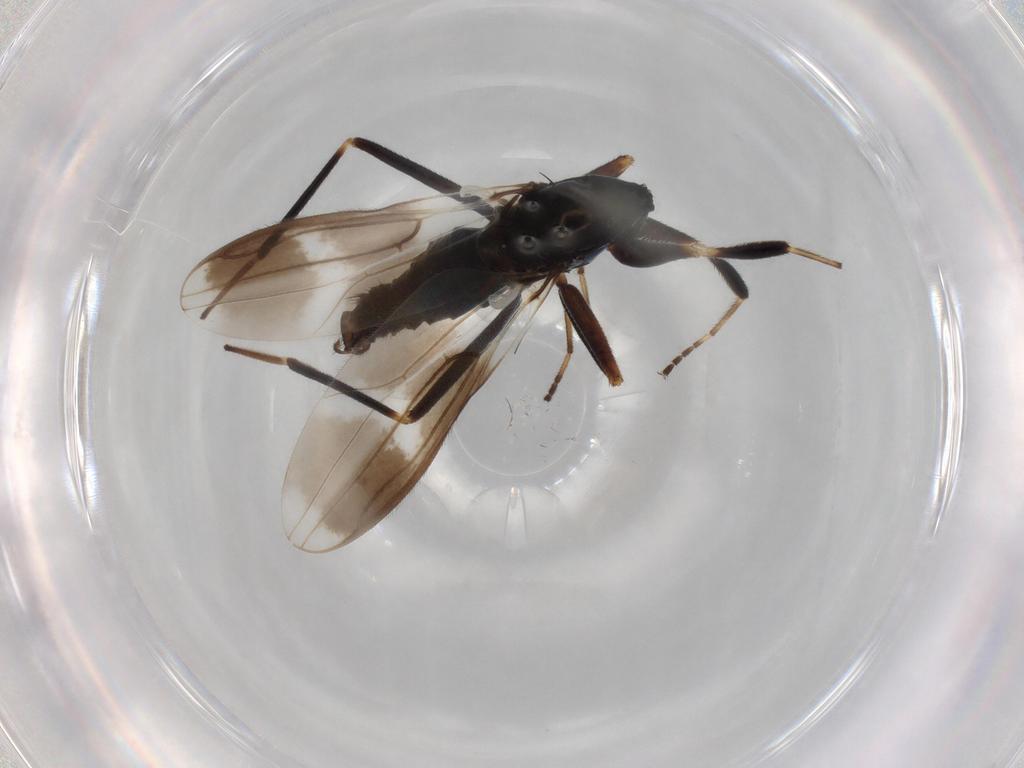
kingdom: Animalia
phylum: Arthropoda
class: Insecta
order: Diptera
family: Hybotidae
